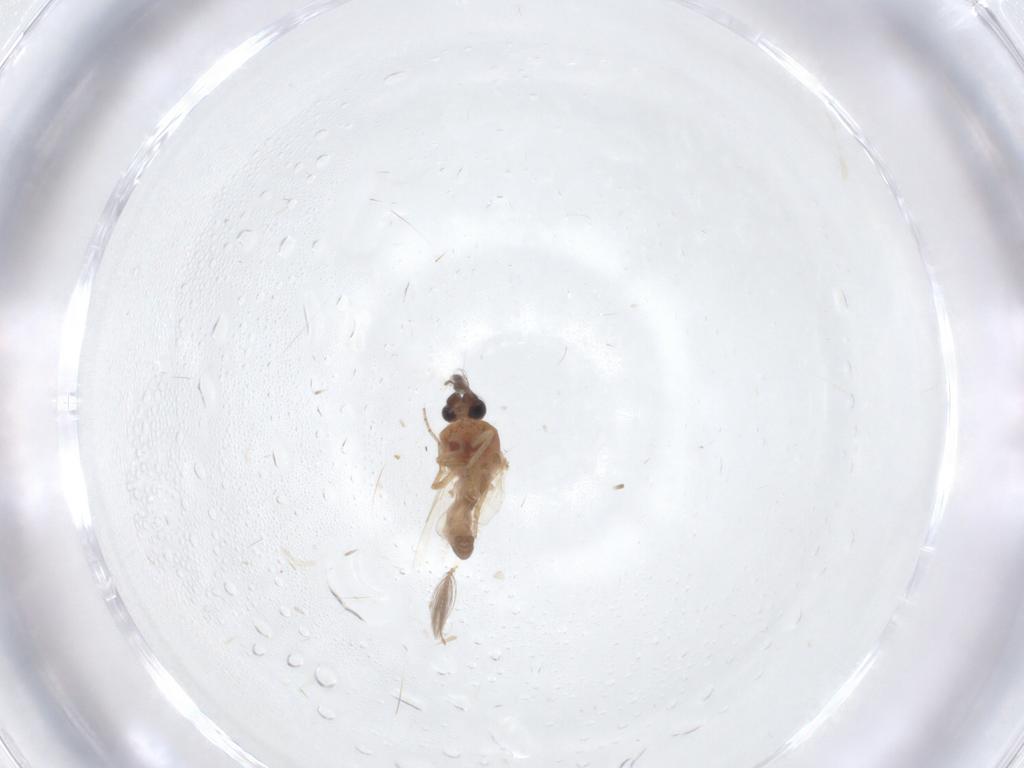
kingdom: Animalia
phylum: Arthropoda
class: Insecta
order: Diptera
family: Ceratopogonidae
